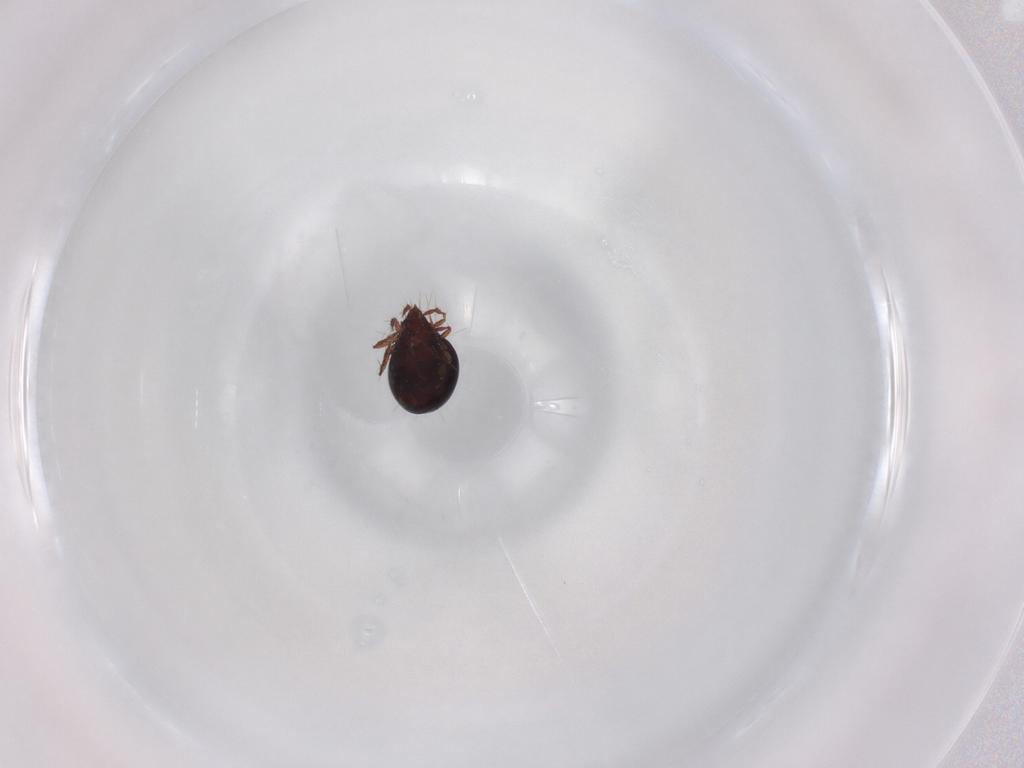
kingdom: Animalia
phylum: Arthropoda
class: Arachnida
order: Sarcoptiformes
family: Ceratoppiidae
